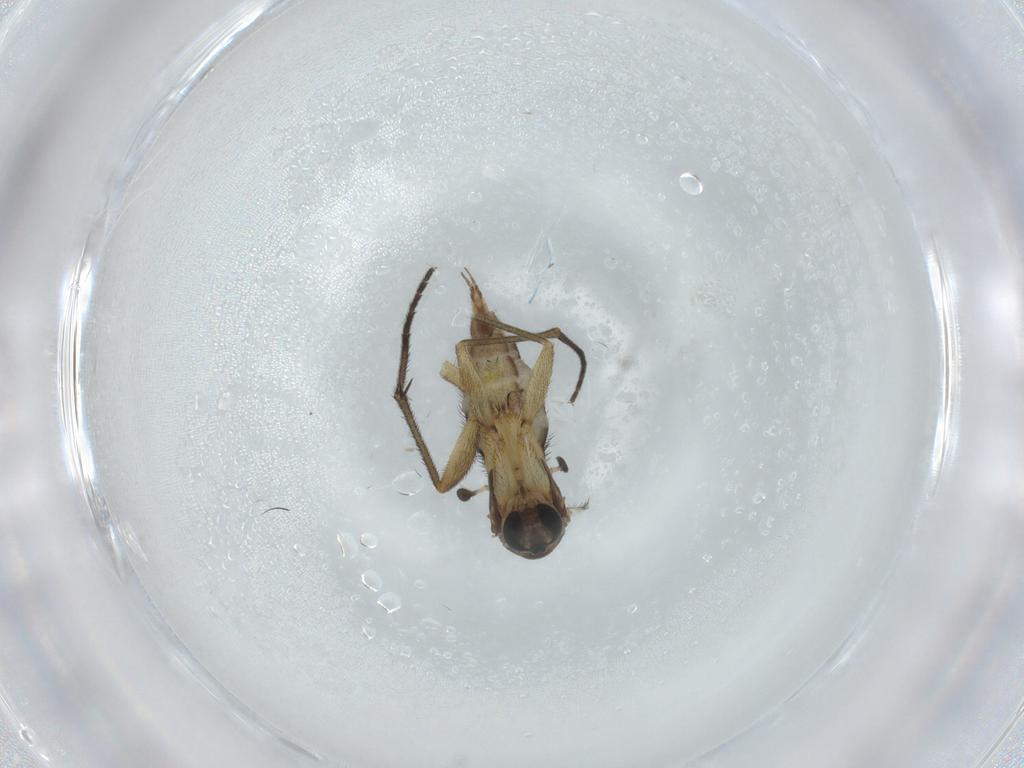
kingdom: Animalia
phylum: Arthropoda
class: Insecta
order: Diptera
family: Sciaridae
